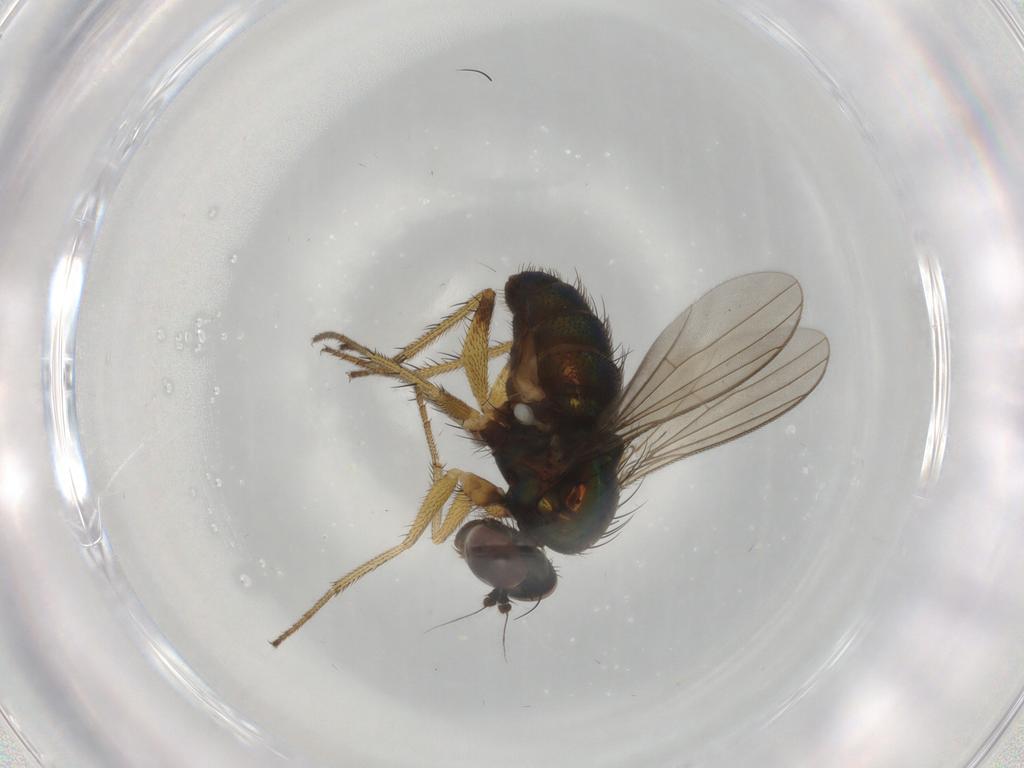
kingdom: Animalia
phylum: Arthropoda
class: Insecta
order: Diptera
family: Dolichopodidae
